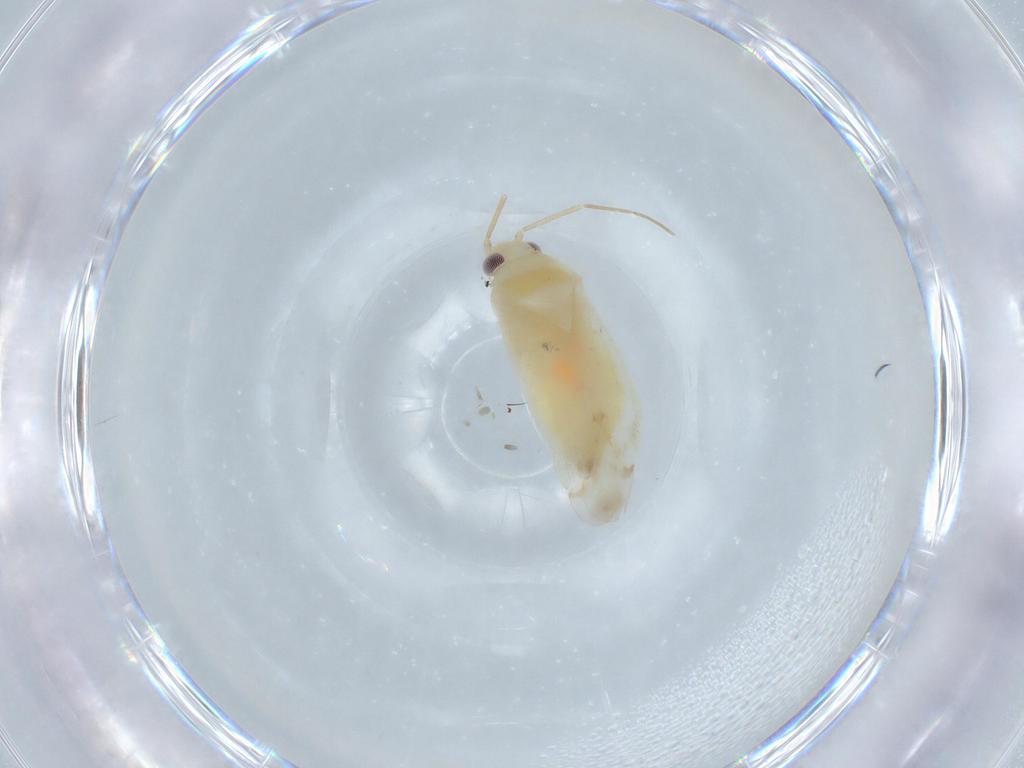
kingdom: Animalia
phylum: Arthropoda
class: Insecta
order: Hemiptera
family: Miridae
